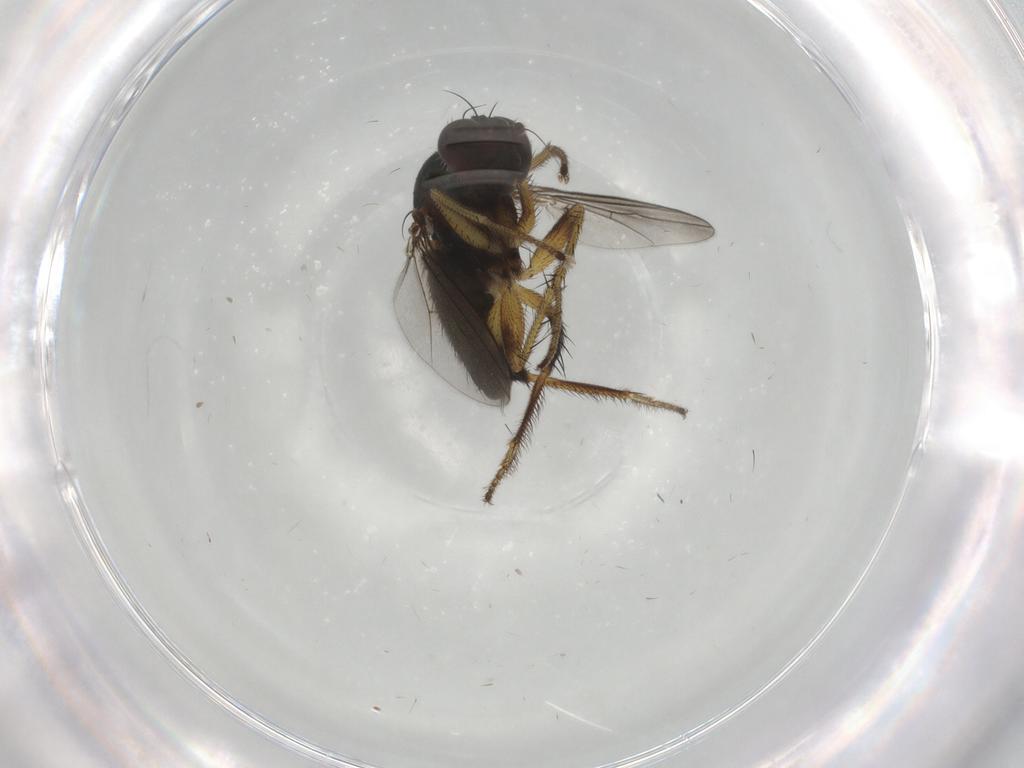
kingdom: Animalia
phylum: Arthropoda
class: Insecta
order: Diptera
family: Dolichopodidae
